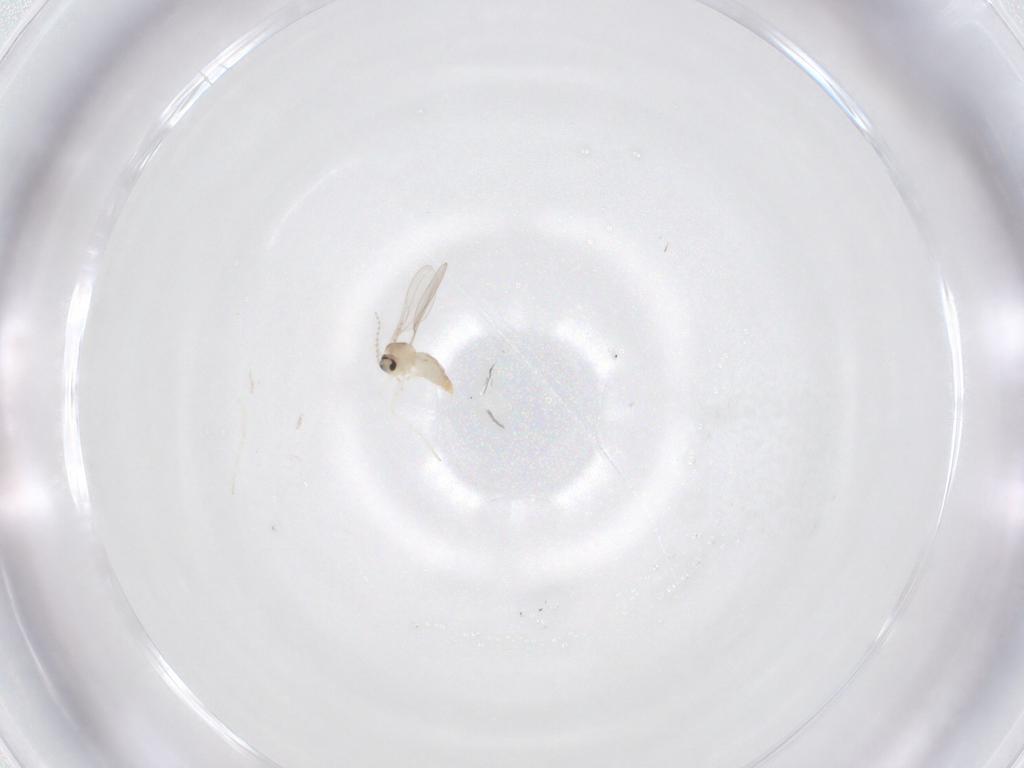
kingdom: Animalia
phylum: Arthropoda
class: Insecta
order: Diptera
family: Cecidomyiidae
